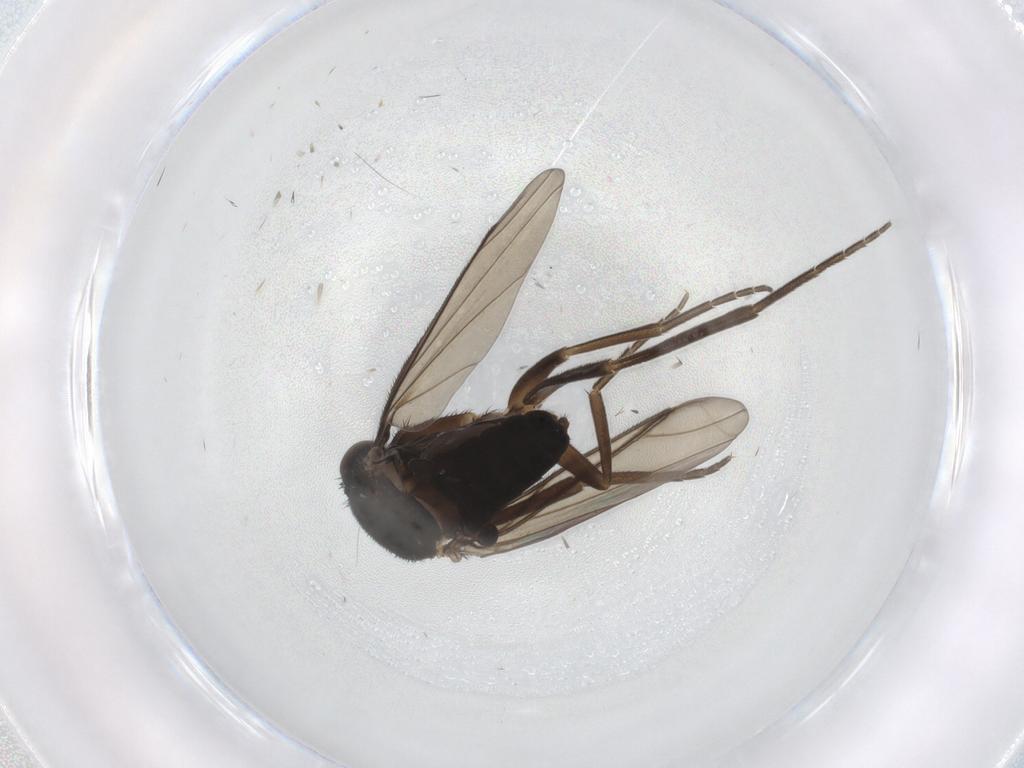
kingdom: Animalia
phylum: Arthropoda
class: Insecta
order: Diptera
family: Phoridae
